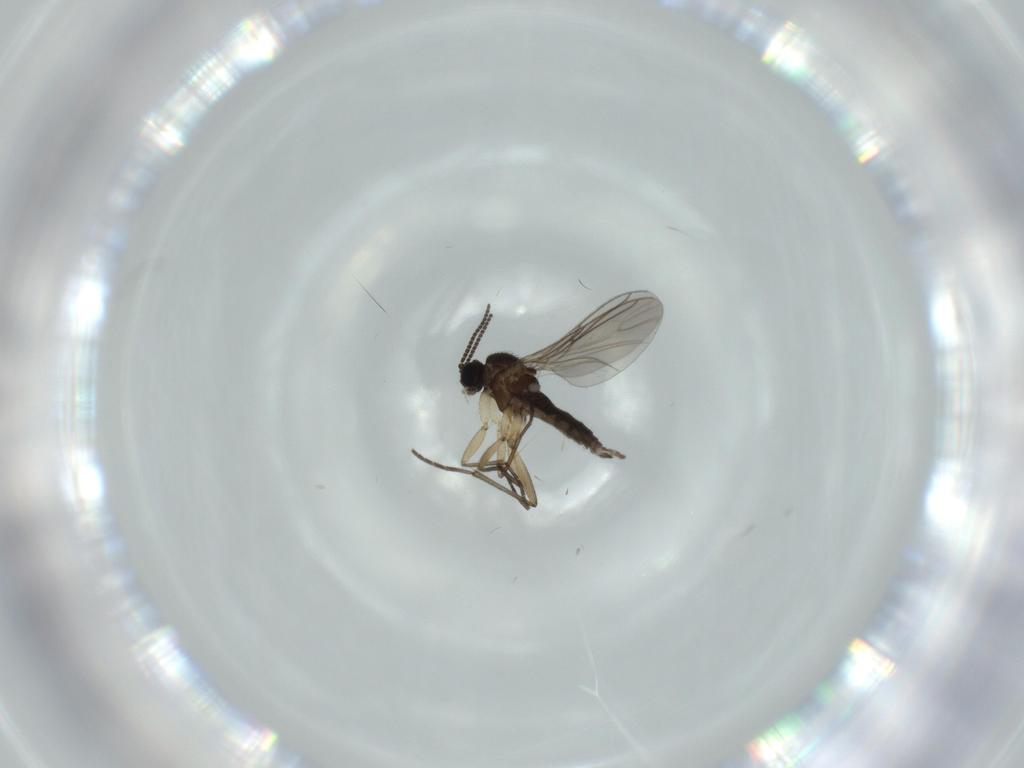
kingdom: Animalia
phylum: Arthropoda
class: Insecta
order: Diptera
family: Sciaridae
